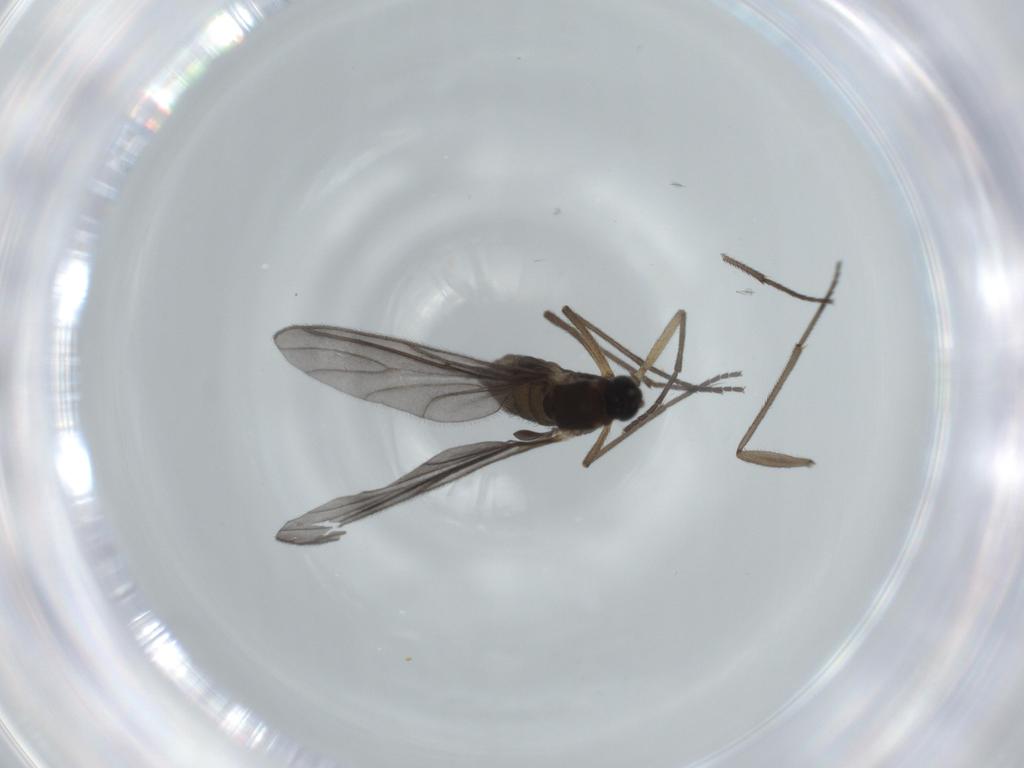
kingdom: Animalia
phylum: Arthropoda
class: Insecta
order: Diptera
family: Sciaridae
